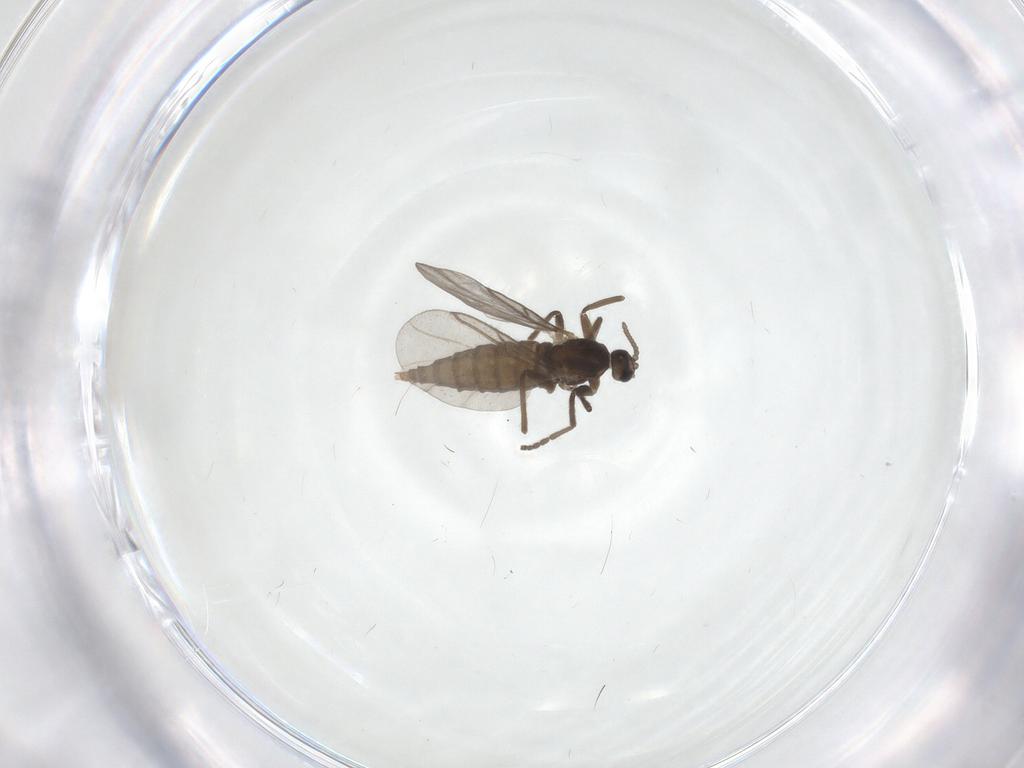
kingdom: Animalia
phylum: Arthropoda
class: Insecta
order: Diptera
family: Cecidomyiidae
